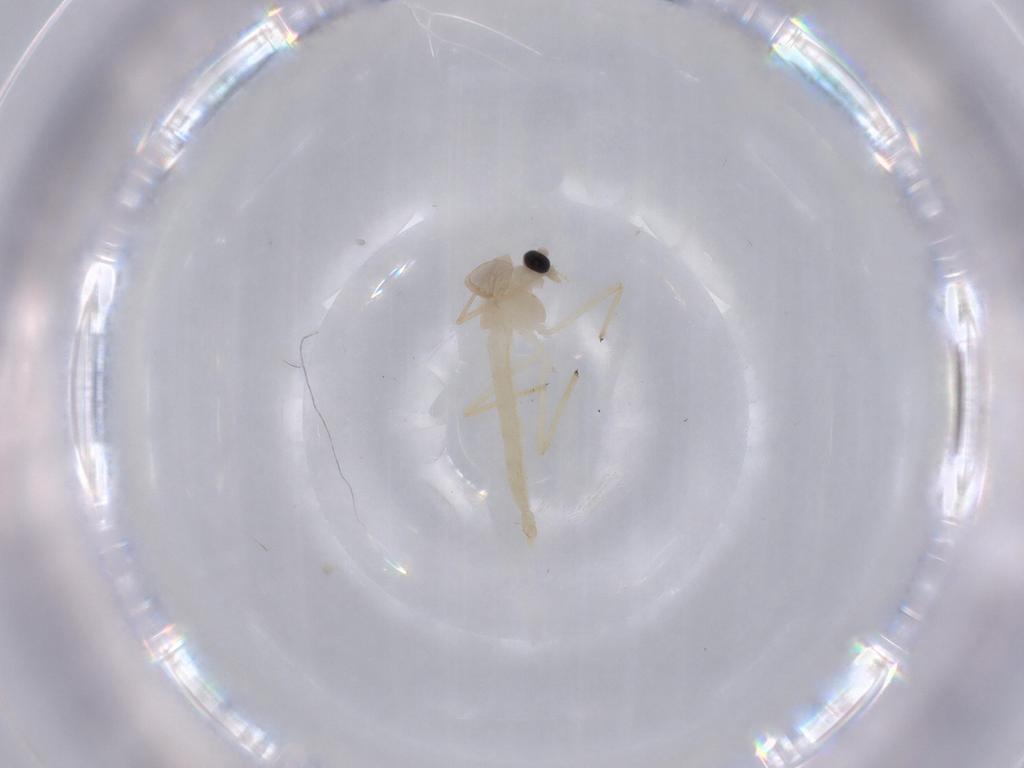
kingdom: Animalia
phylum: Arthropoda
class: Insecta
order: Diptera
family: Chironomidae
